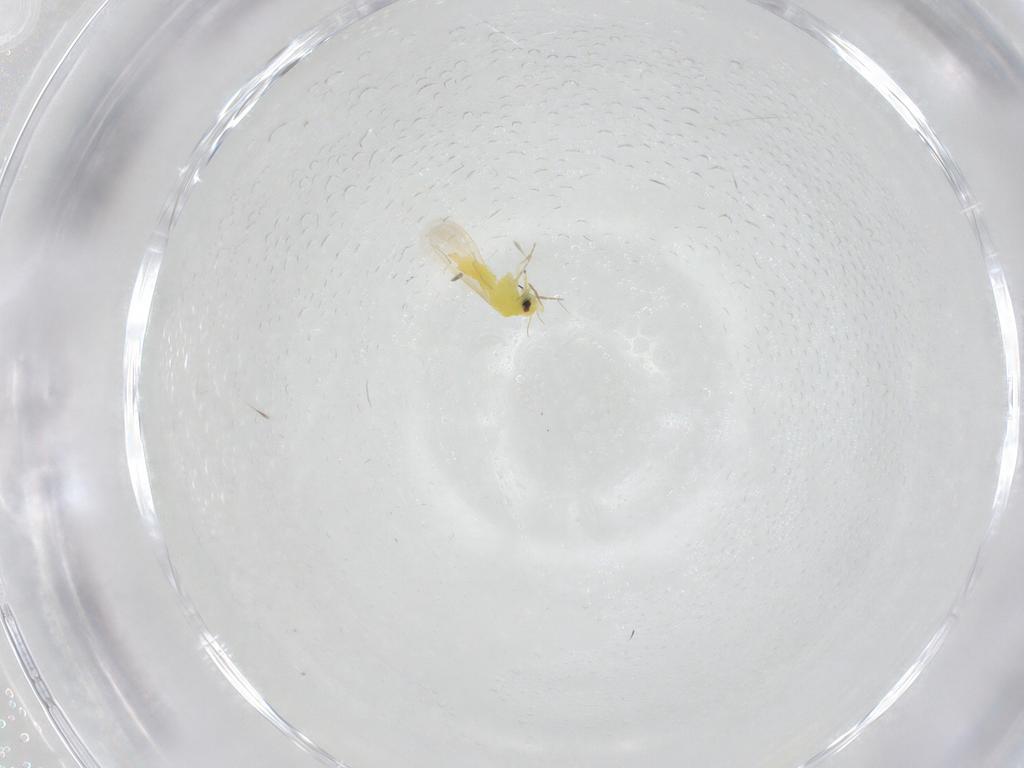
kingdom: Animalia
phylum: Arthropoda
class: Insecta
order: Hemiptera
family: Aleyrodidae
